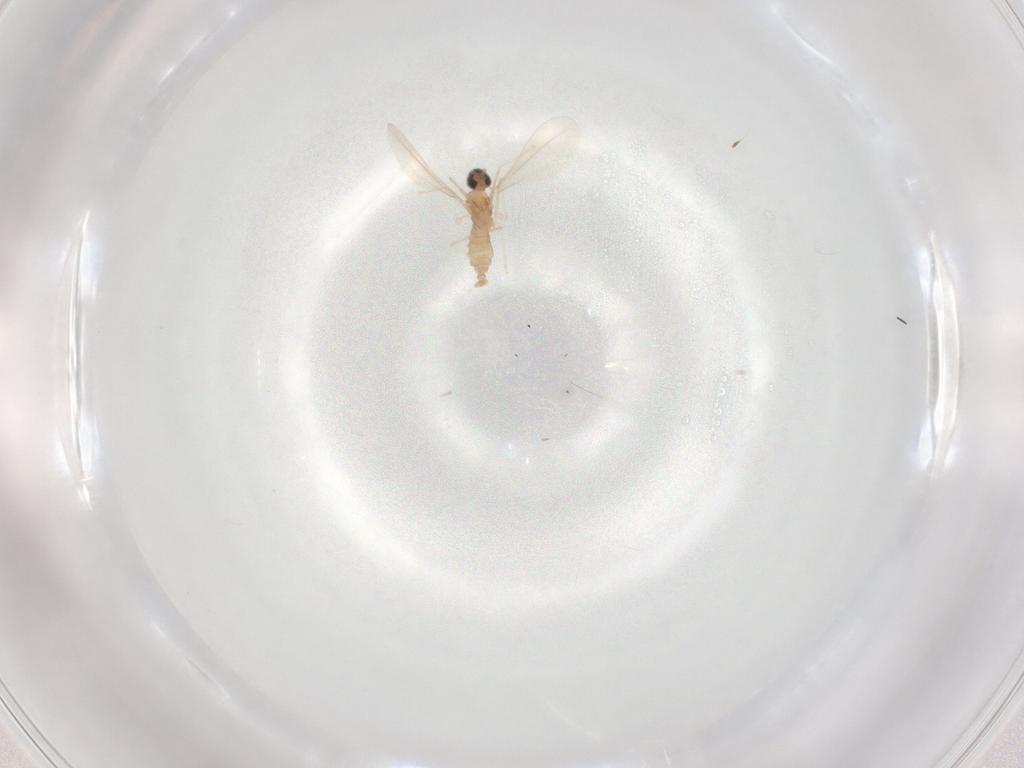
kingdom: Animalia
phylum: Arthropoda
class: Insecta
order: Diptera
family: Cecidomyiidae
